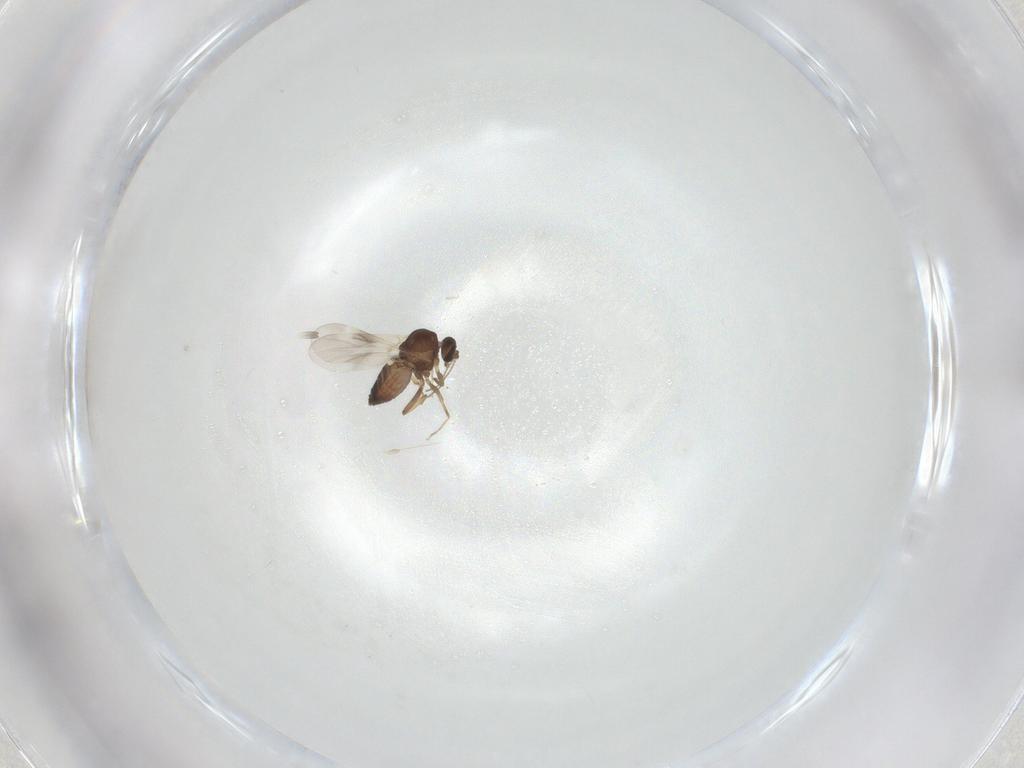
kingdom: Animalia
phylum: Arthropoda
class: Insecta
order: Diptera
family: Ceratopogonidae
